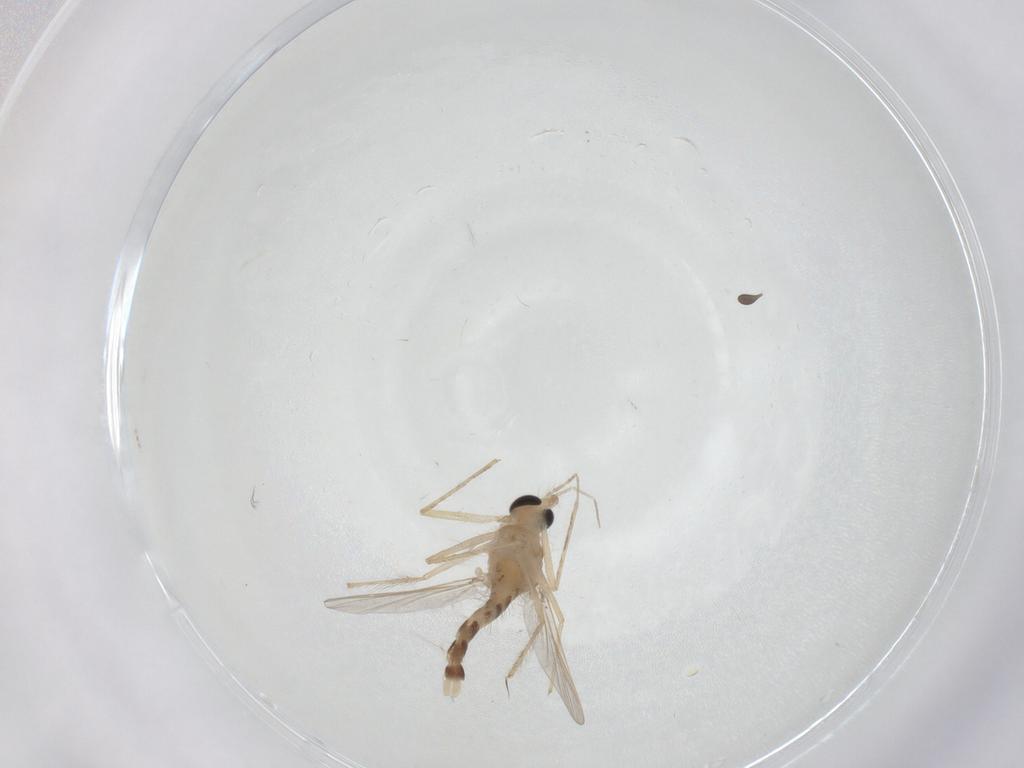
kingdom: Animalia
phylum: Arthropoda
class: Insecta
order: Diptera
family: Chironomidae
